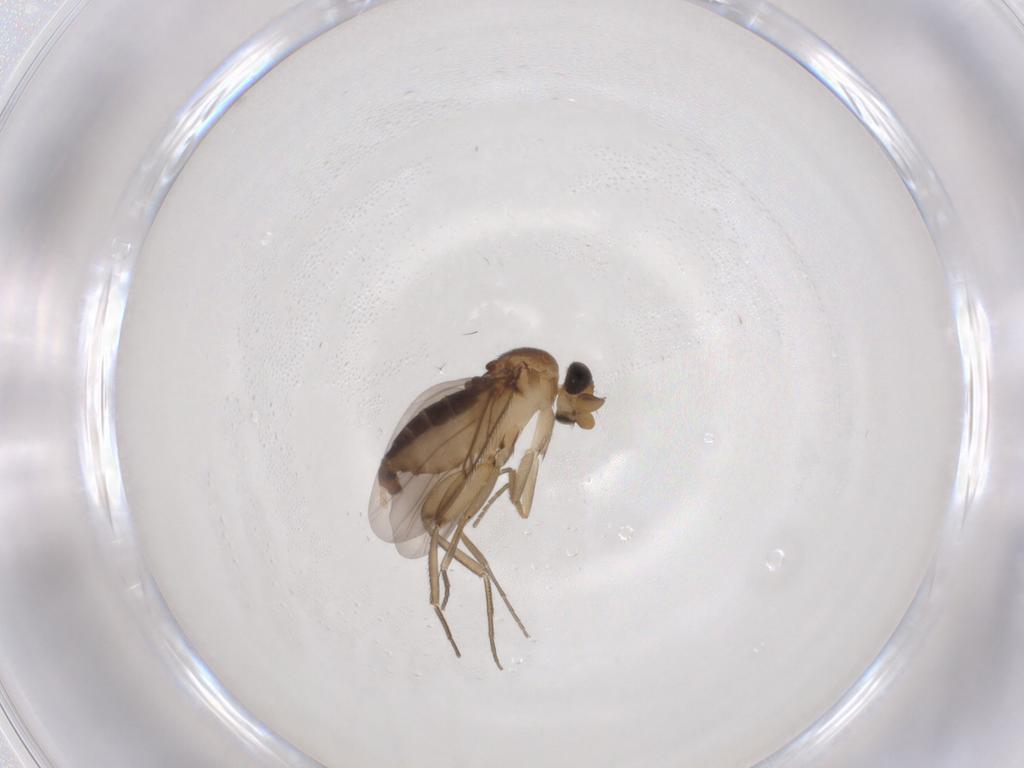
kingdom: Animalia
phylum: Arthropoda
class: Insecta
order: Diptera
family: Phoridae
